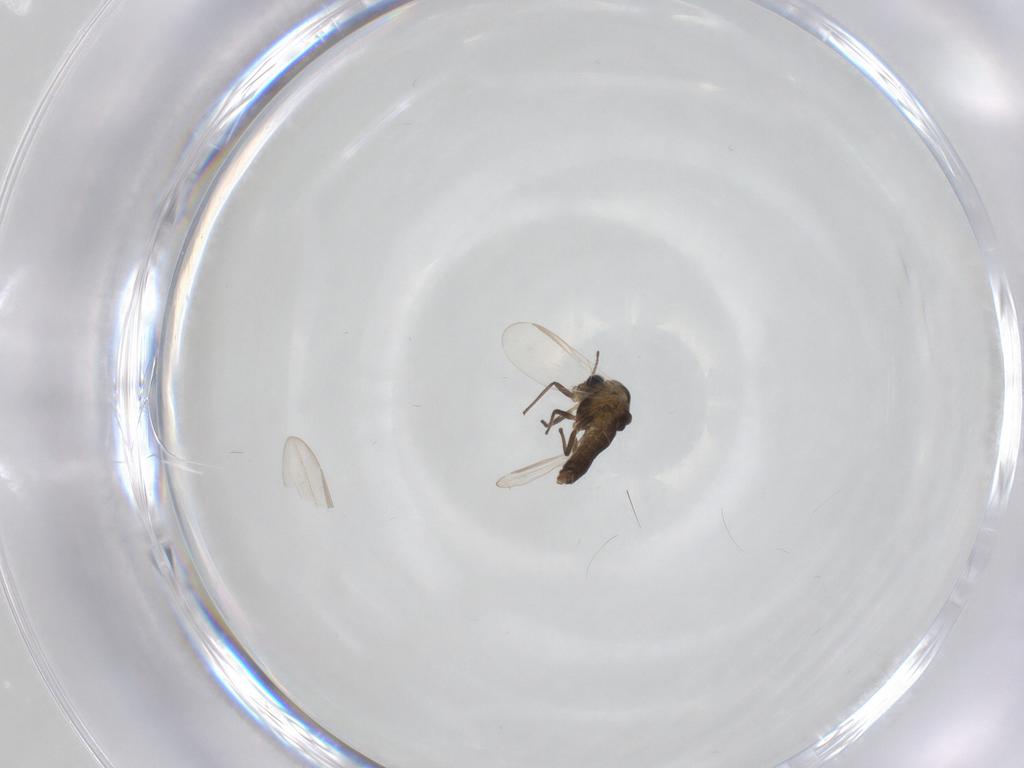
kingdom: Animalia
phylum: Arthropoda
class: Insecta
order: Diptera
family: Chironomidae
